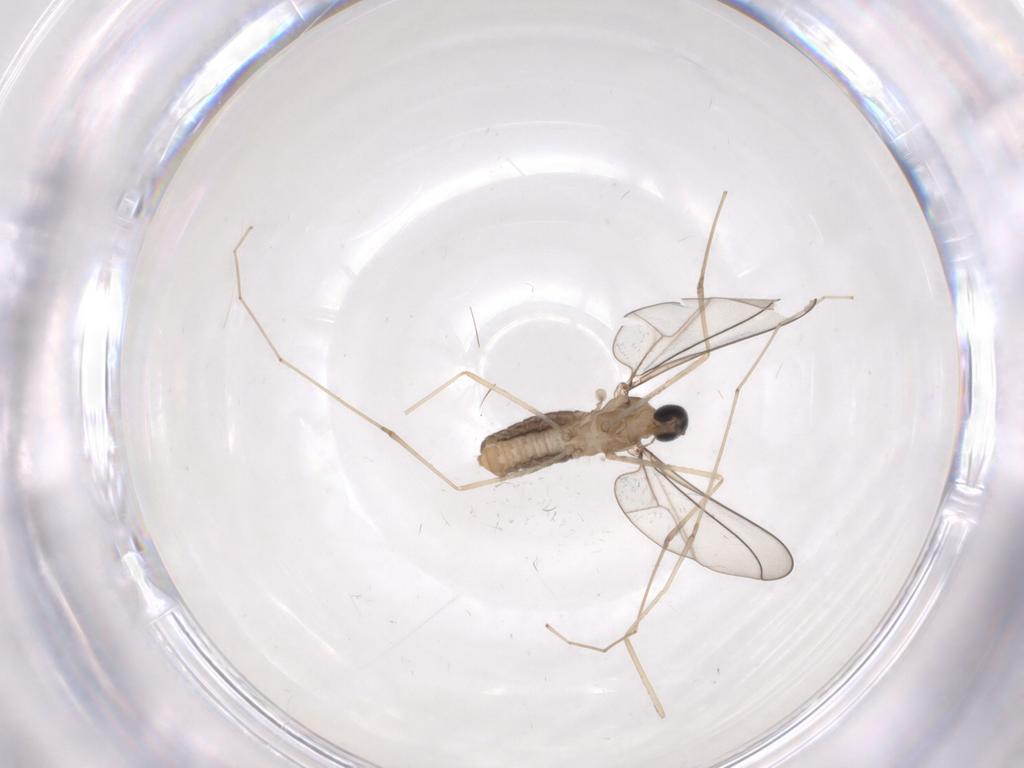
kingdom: Animalia
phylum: Arthropoda
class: Insecta
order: Diptera
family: Cecidomyiidae
